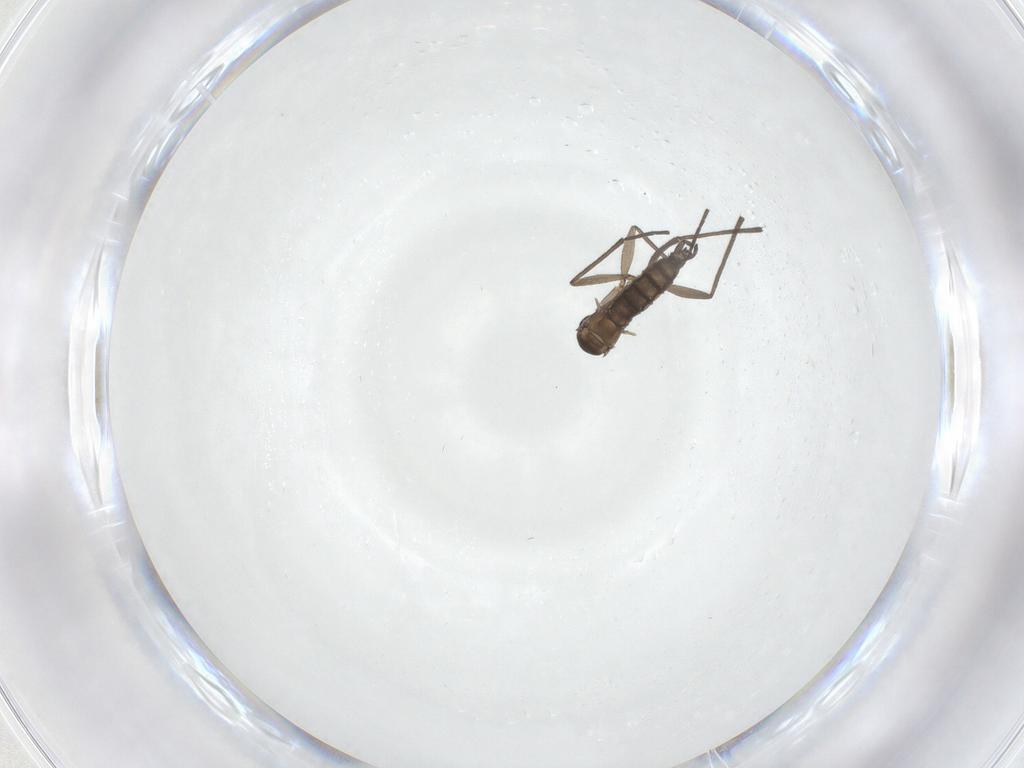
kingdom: Animalia
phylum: Arthropoda
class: Insecta
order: Diptera
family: Sciaridae
